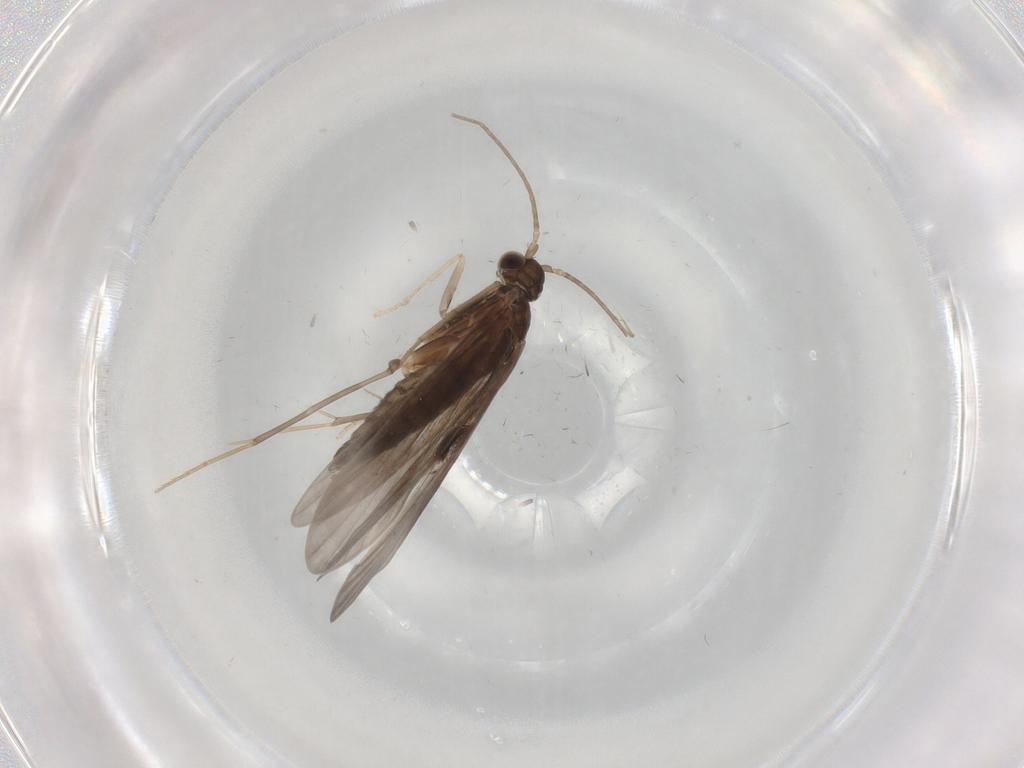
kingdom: Animalia
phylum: Arthropoda
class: Insecta
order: Trichoptera
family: Xiphocentronidae
